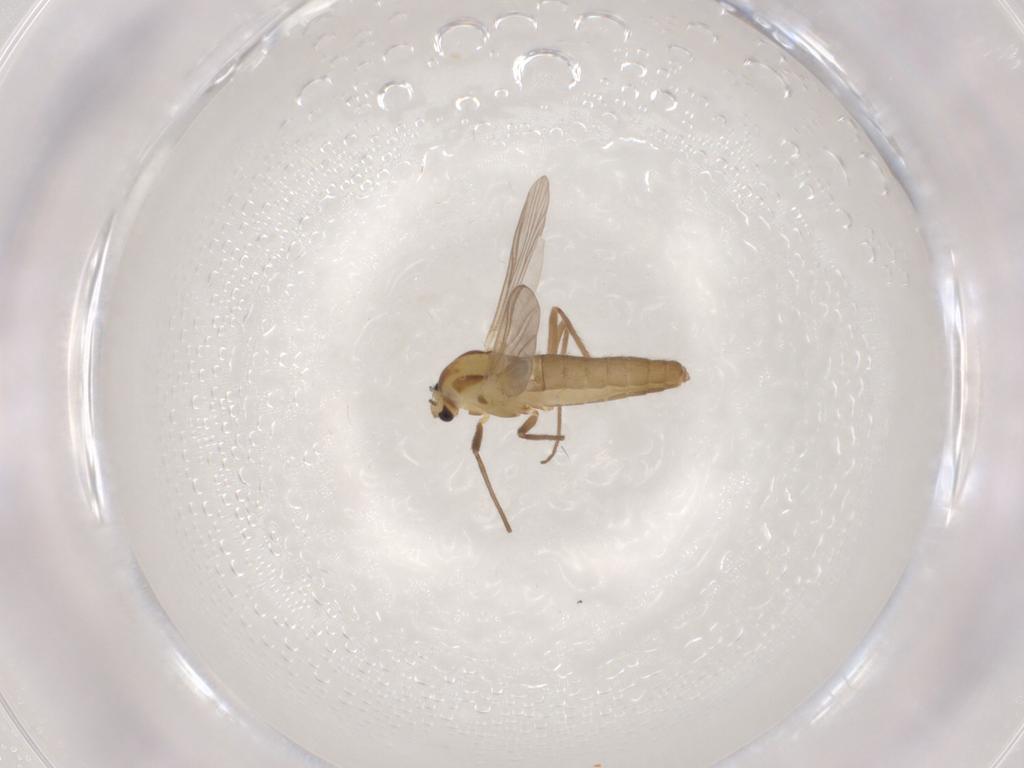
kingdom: Animalia
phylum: Arthropoda
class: Insecta
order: Diptera
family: Chironomidae
